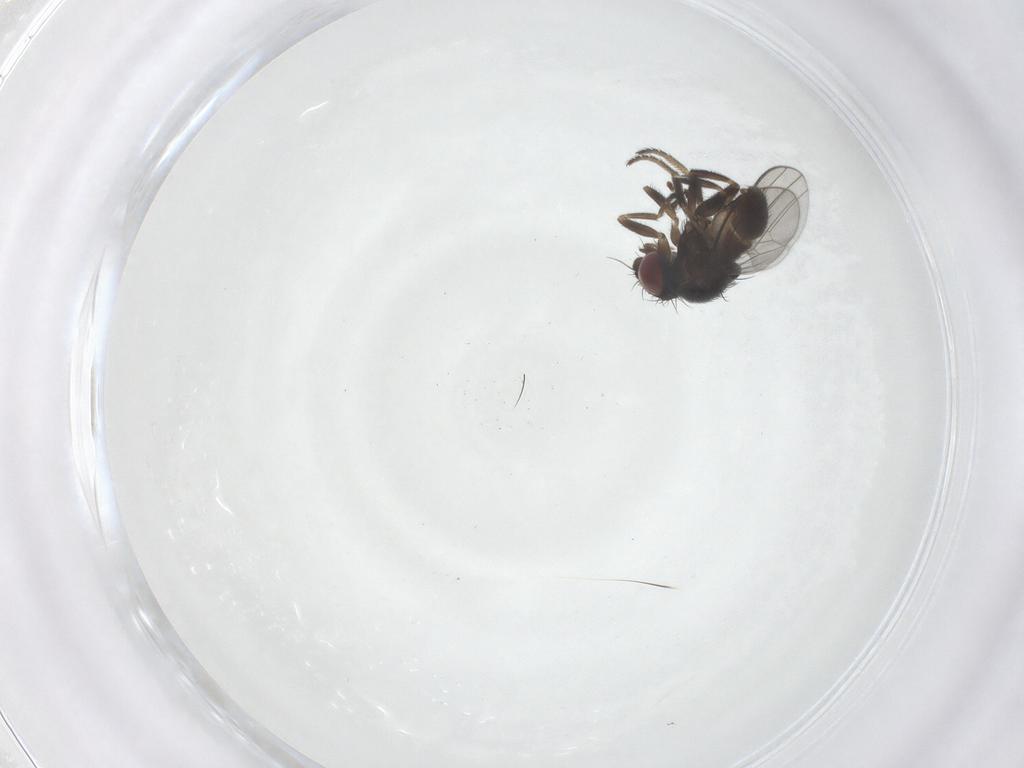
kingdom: Animalia
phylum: Arthropoda
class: Insecta
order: Diptera
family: Milichiidae
